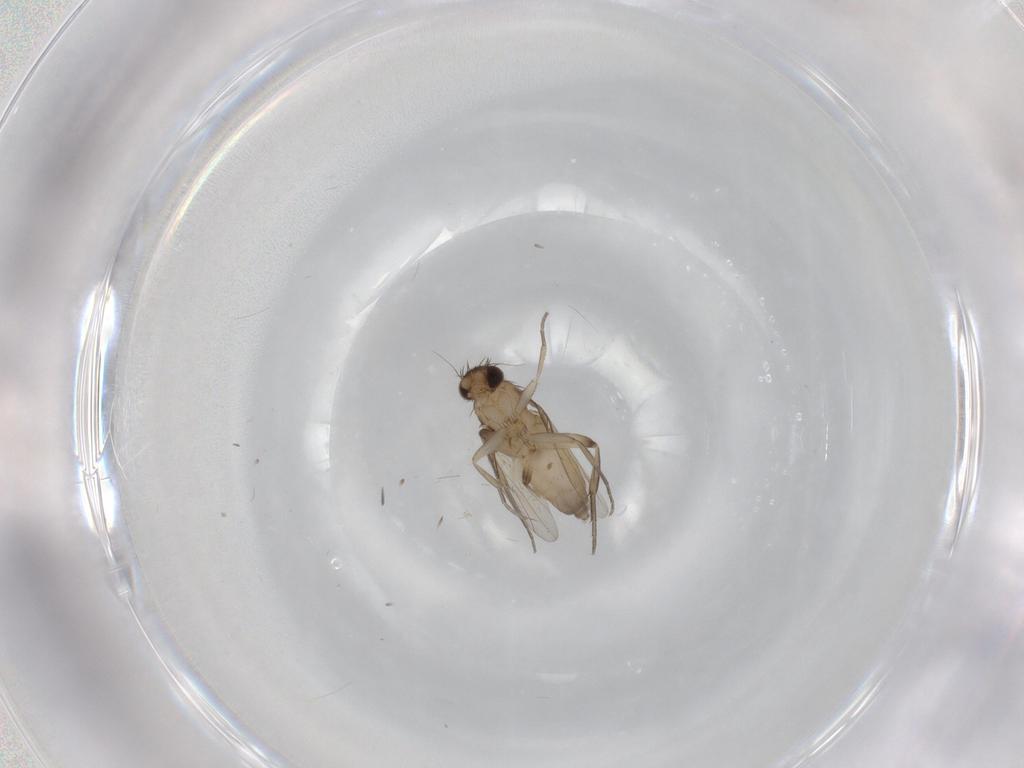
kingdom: Animalia
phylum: Arthropoda
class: Insecta
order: Diptera
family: Phoridae
